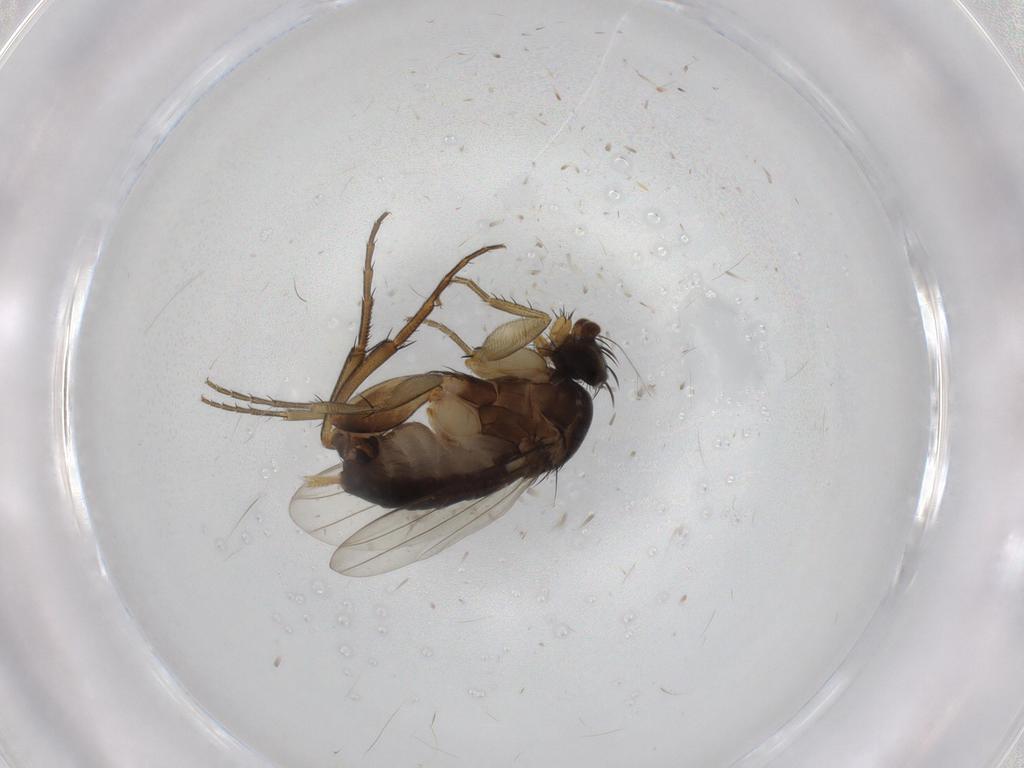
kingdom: Animalia
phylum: Arthropoda
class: Insecta
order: Diptera
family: Phoridae
